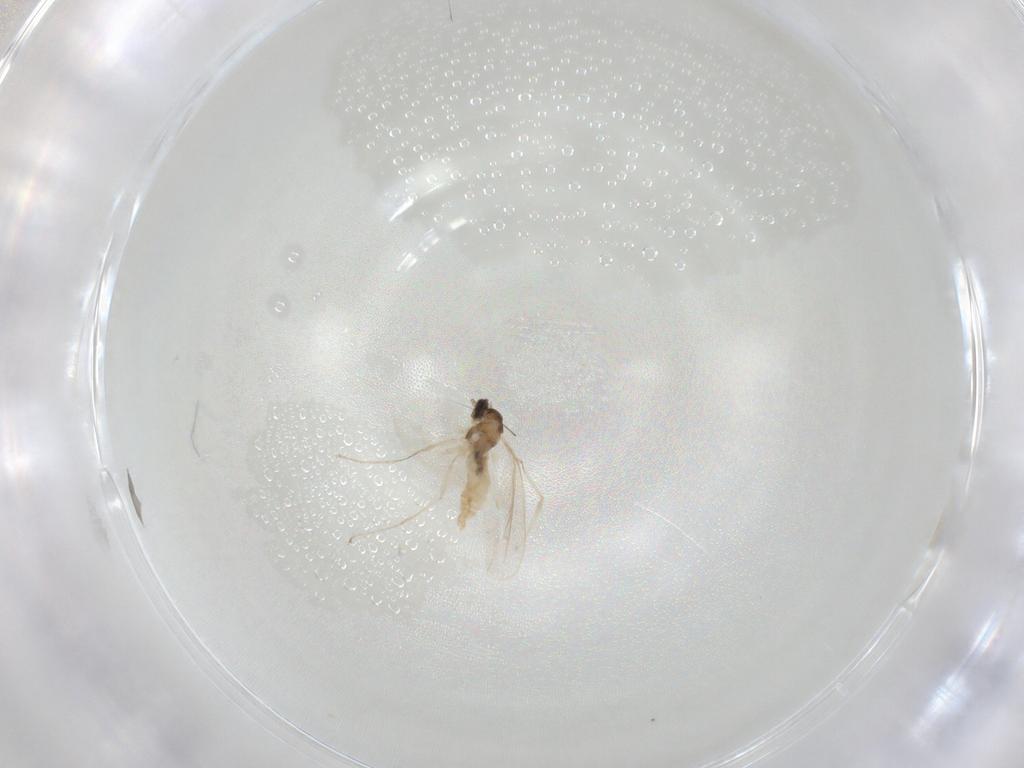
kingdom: Animalia
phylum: Arthropoda
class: Insecta
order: Diptera
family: Cecidomyiidae
